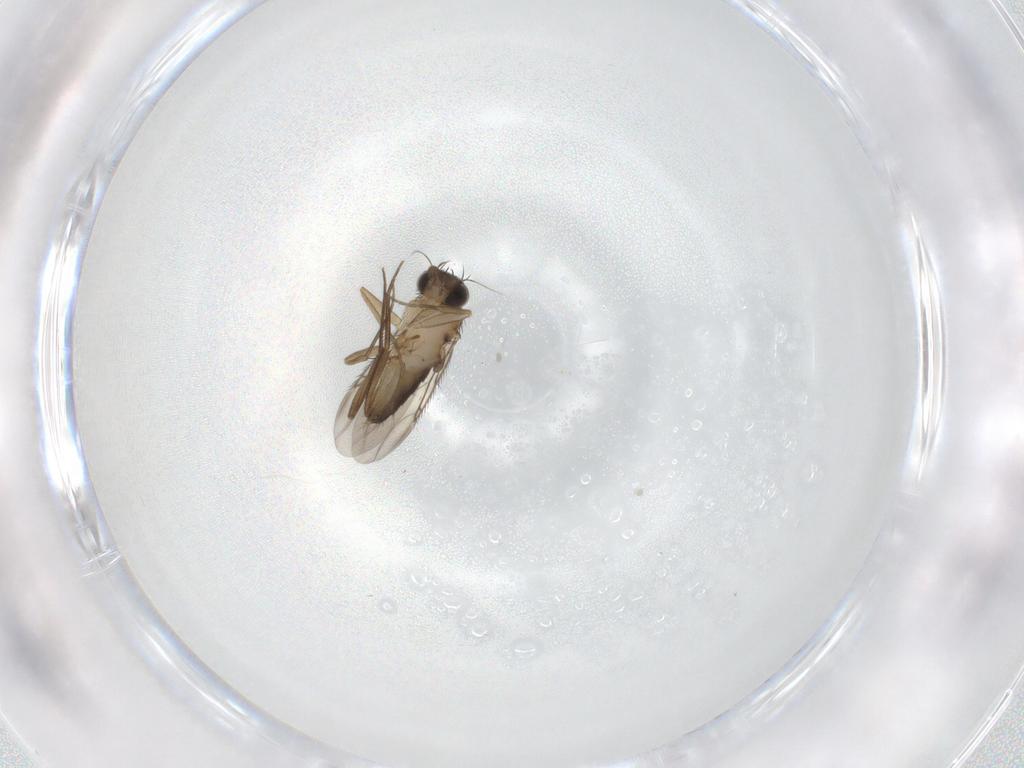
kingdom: Animalia
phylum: Arthropoda
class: Insecta
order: Diptera
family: Phoridae
